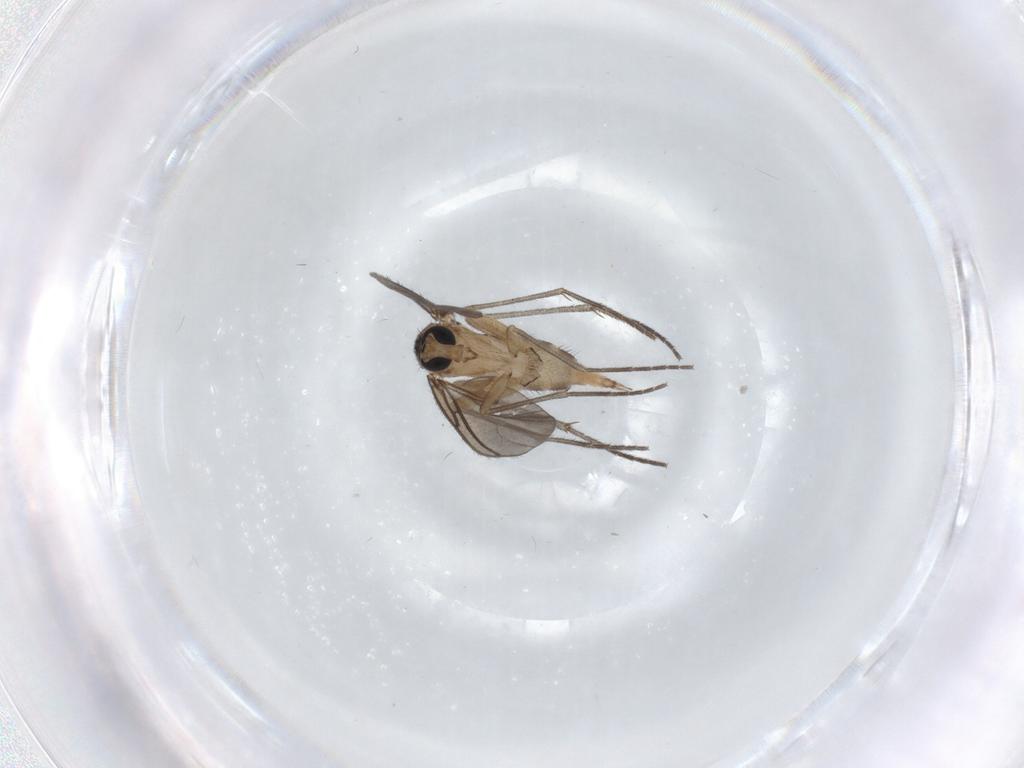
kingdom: Animalia
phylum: Arthropoda
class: Insecta
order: Diptera
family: Sciaridae
